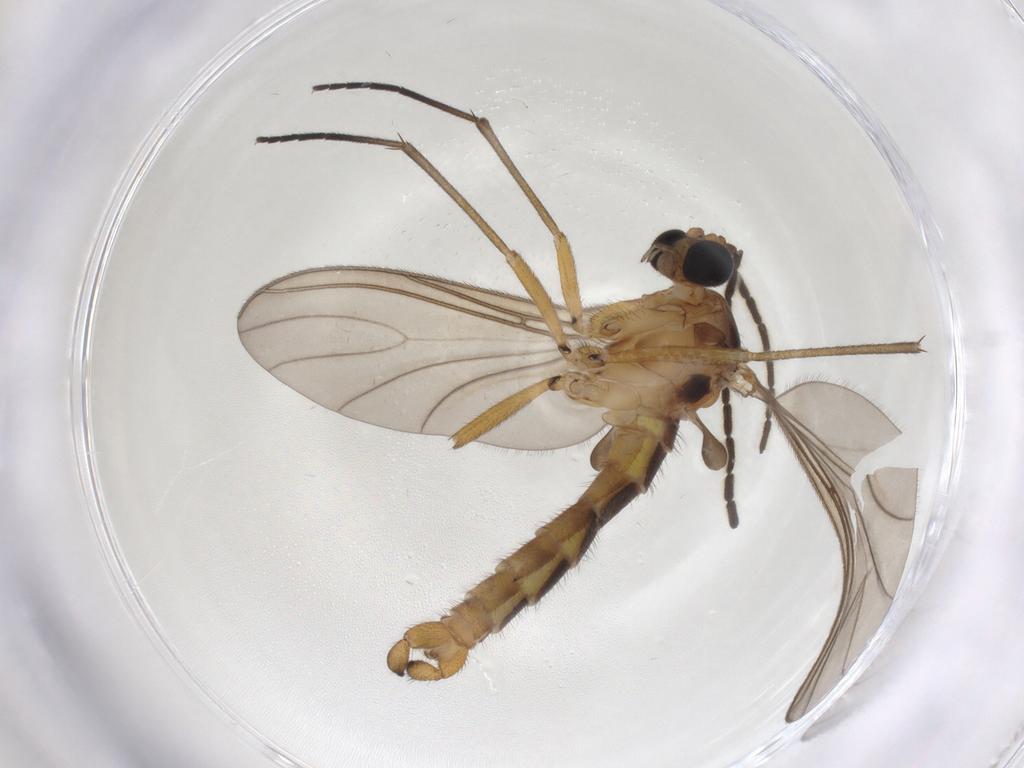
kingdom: Animalia
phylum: Arthropoda
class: Insecta
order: Diptera
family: Sciaridae
